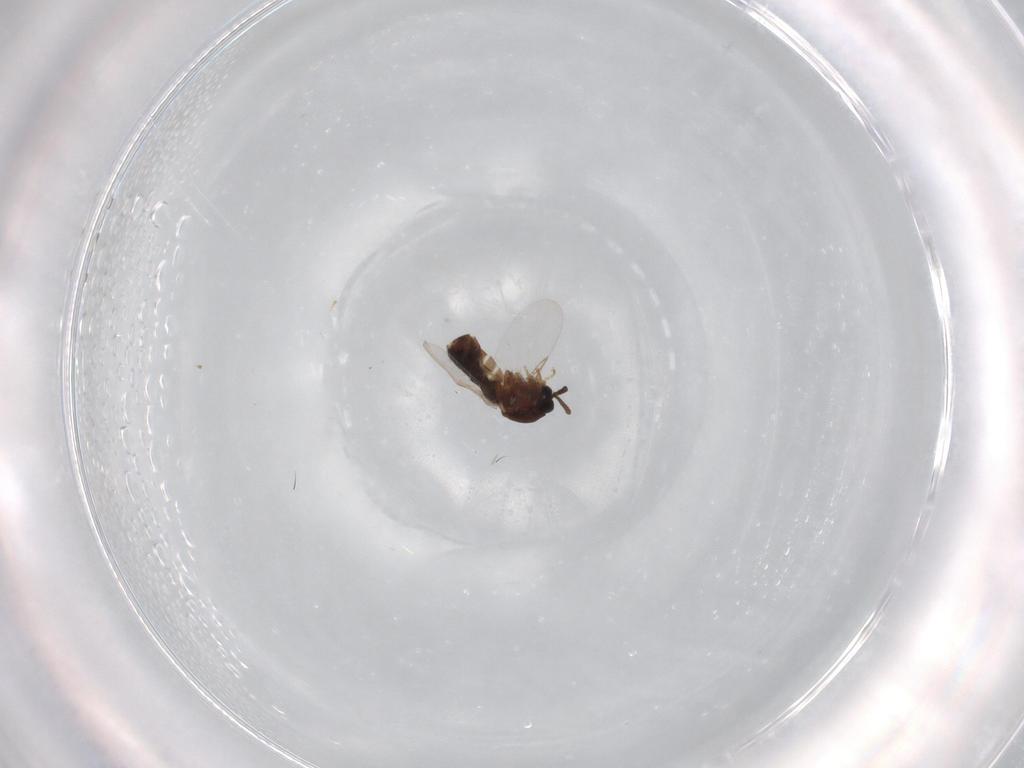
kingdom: Animalia
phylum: Arthropoda
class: Insecta
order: Diptera
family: Scatopsidae
